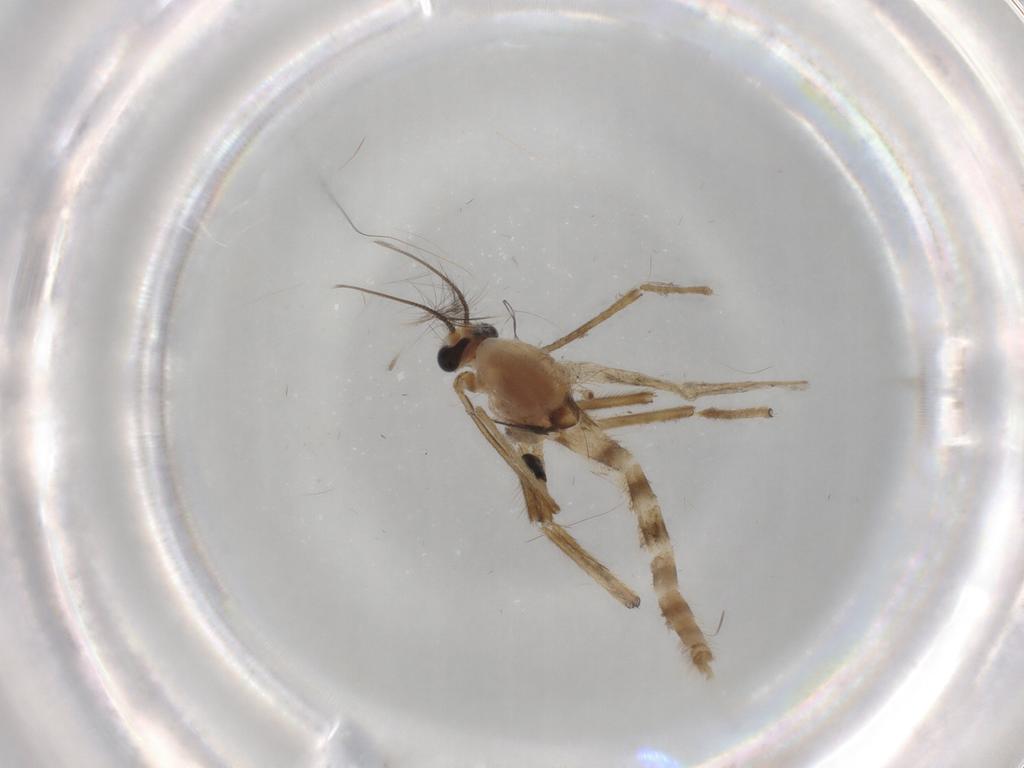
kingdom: Animalia
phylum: Arthropoda
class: Insecta
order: Diptera
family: Chironomidae
